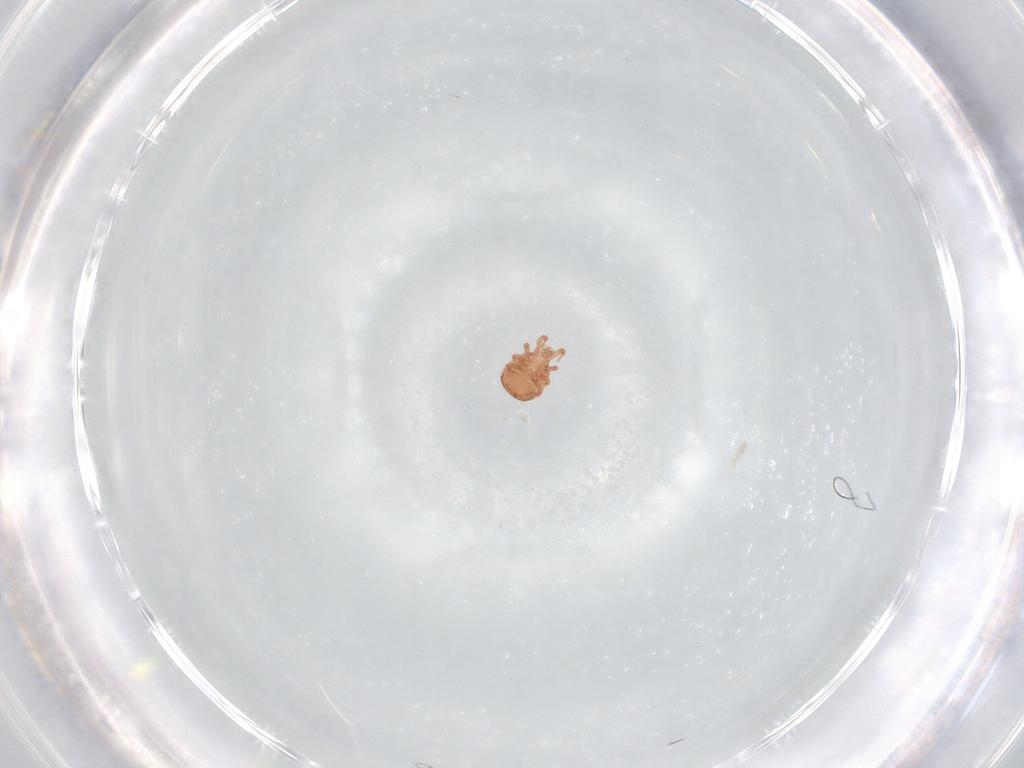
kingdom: Animalia
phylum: Arthropoda
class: Arachnida
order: Mesostigmata
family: Zerconidae
